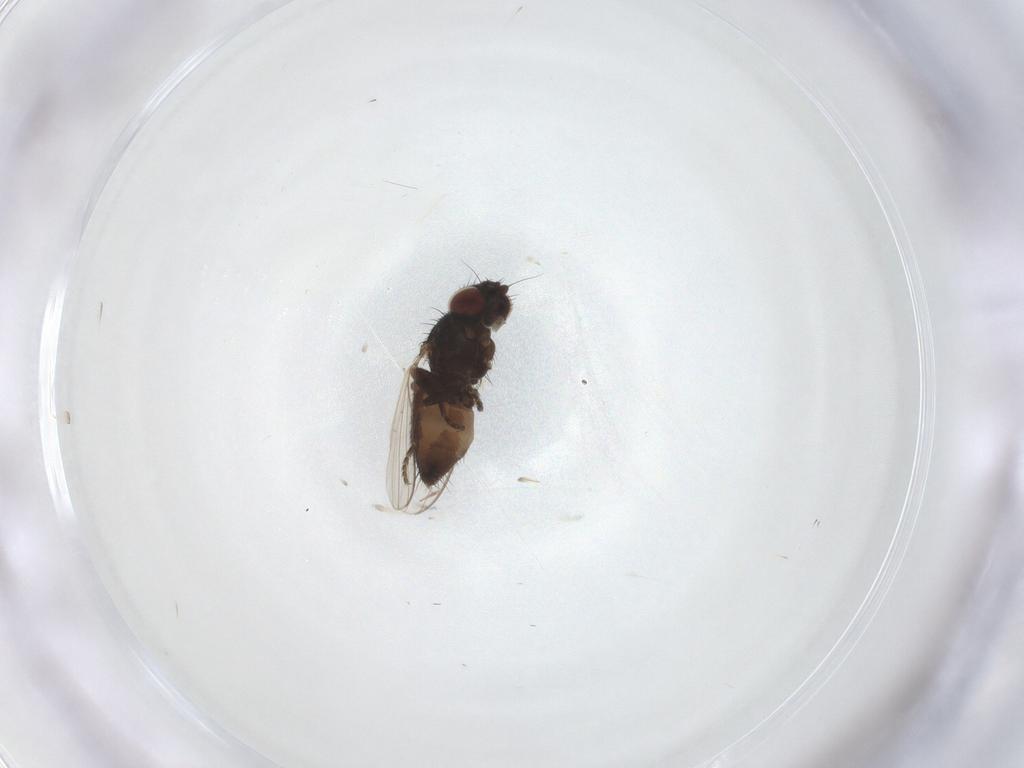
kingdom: Animalia
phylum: Arthropoda
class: Insecta
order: Diptera
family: Milichiidae
